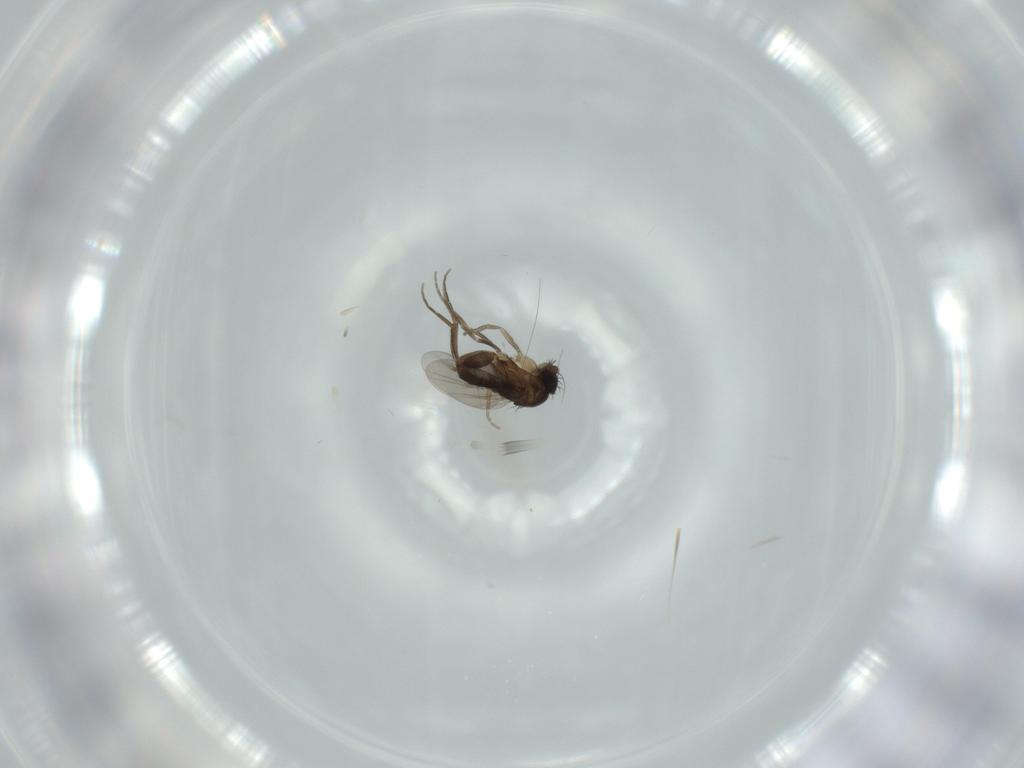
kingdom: Animalia
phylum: Arthropoda
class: Insecta
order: Diptera
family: Phoridae
